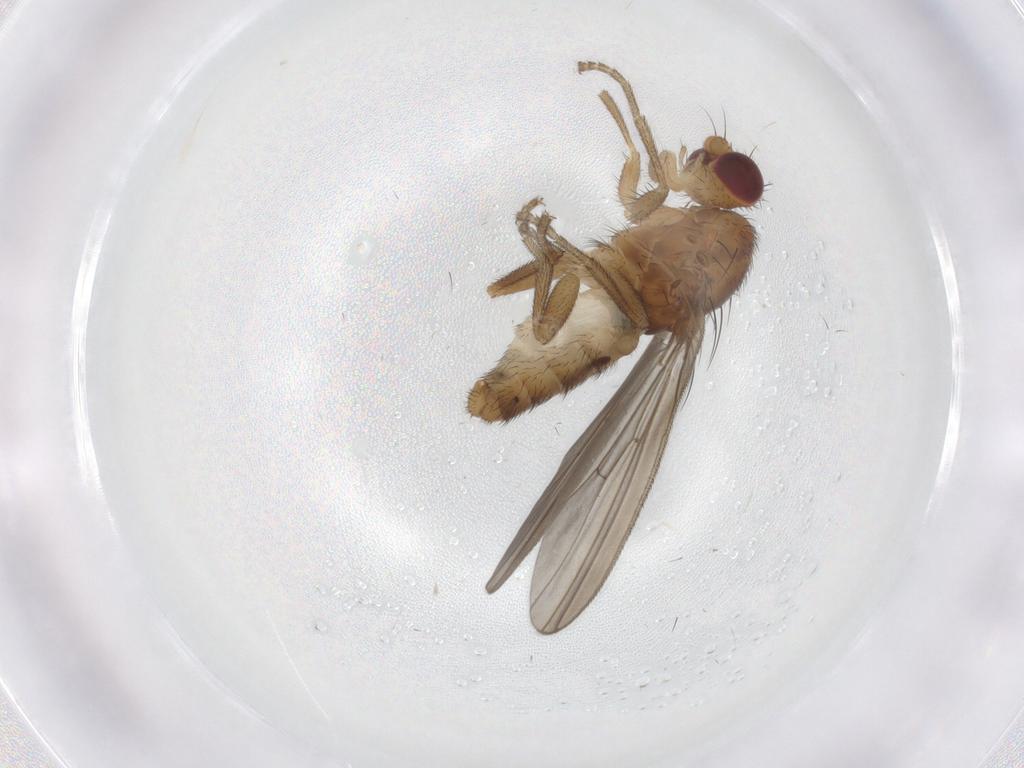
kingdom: Animalia
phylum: Arthropoda
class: Insecta
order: Diptera
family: Natalimyzidae
